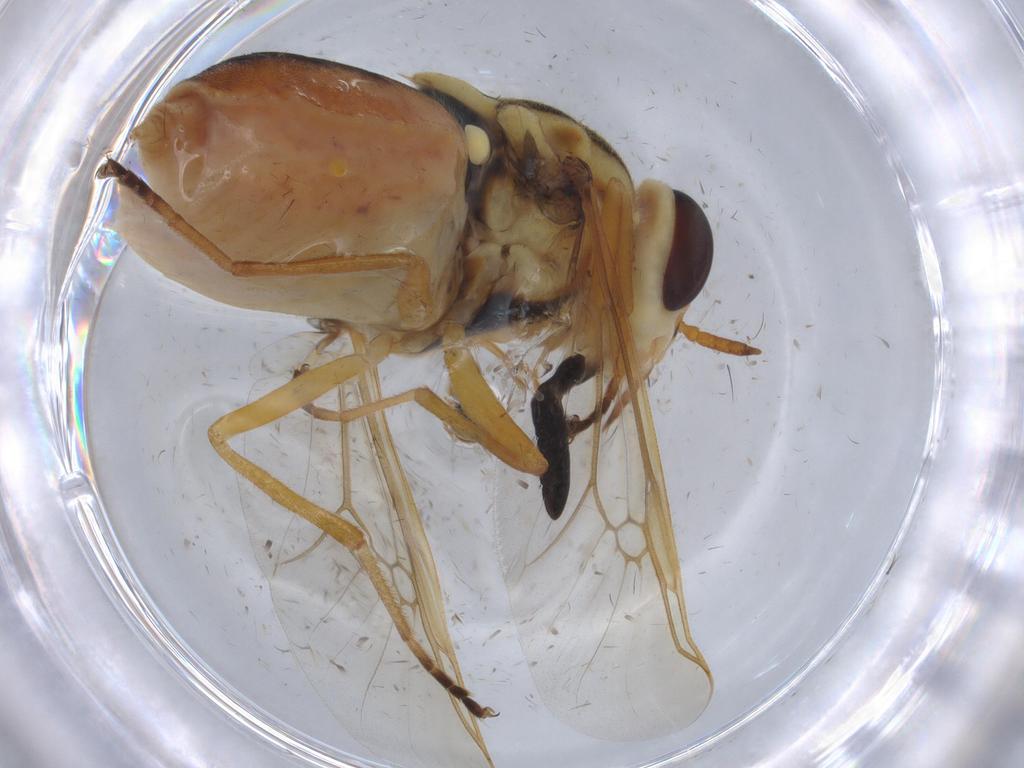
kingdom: Animalia
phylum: Arthropoda
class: Insecta
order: Diptera
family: Stratiomyidae
